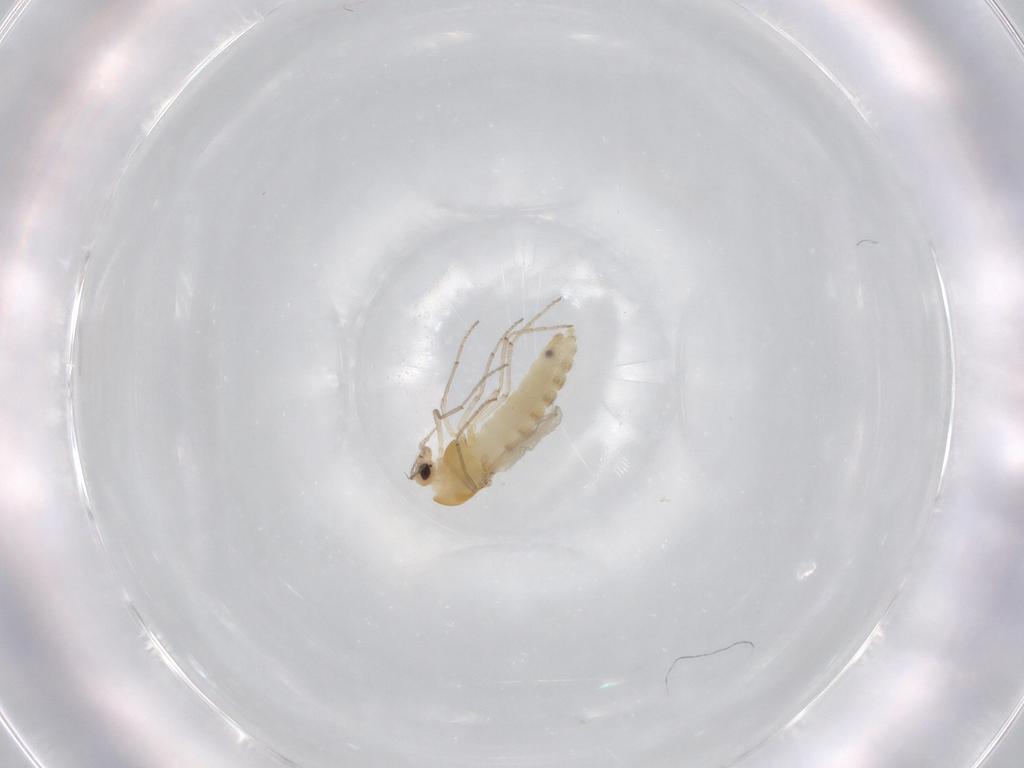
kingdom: Animalia
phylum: Arthropoda
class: Insecta
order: Diptera
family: Chironomidae
